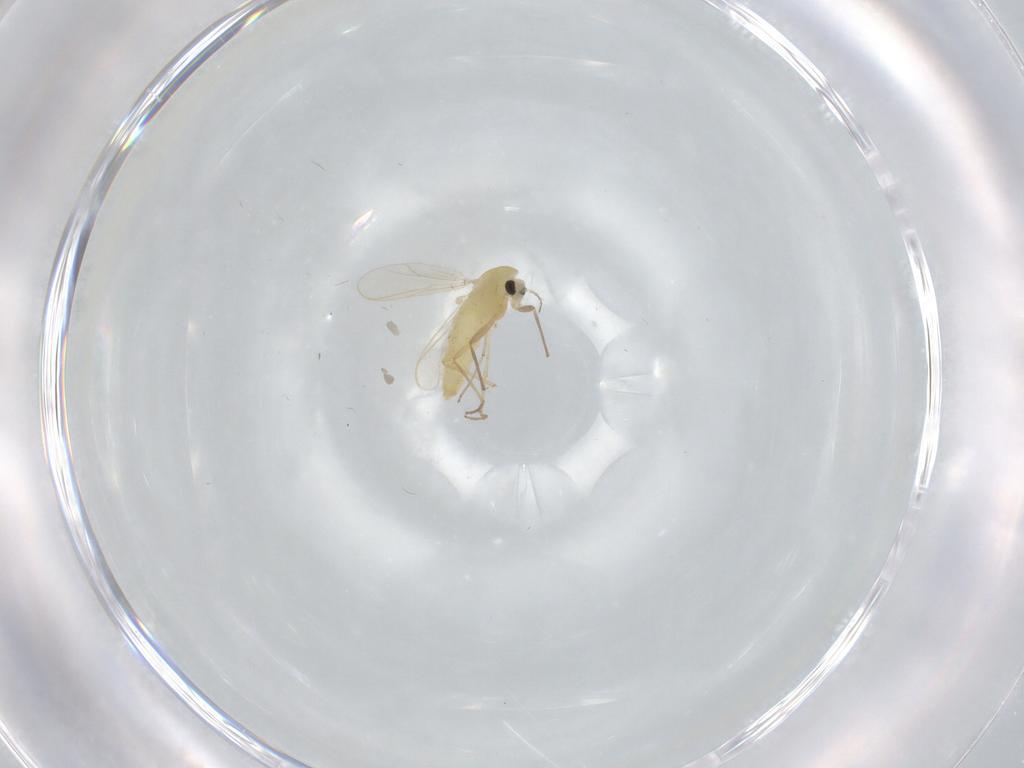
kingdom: Animalia
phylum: Arthropoda
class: Insecta
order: Diptera
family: Chironomidae
